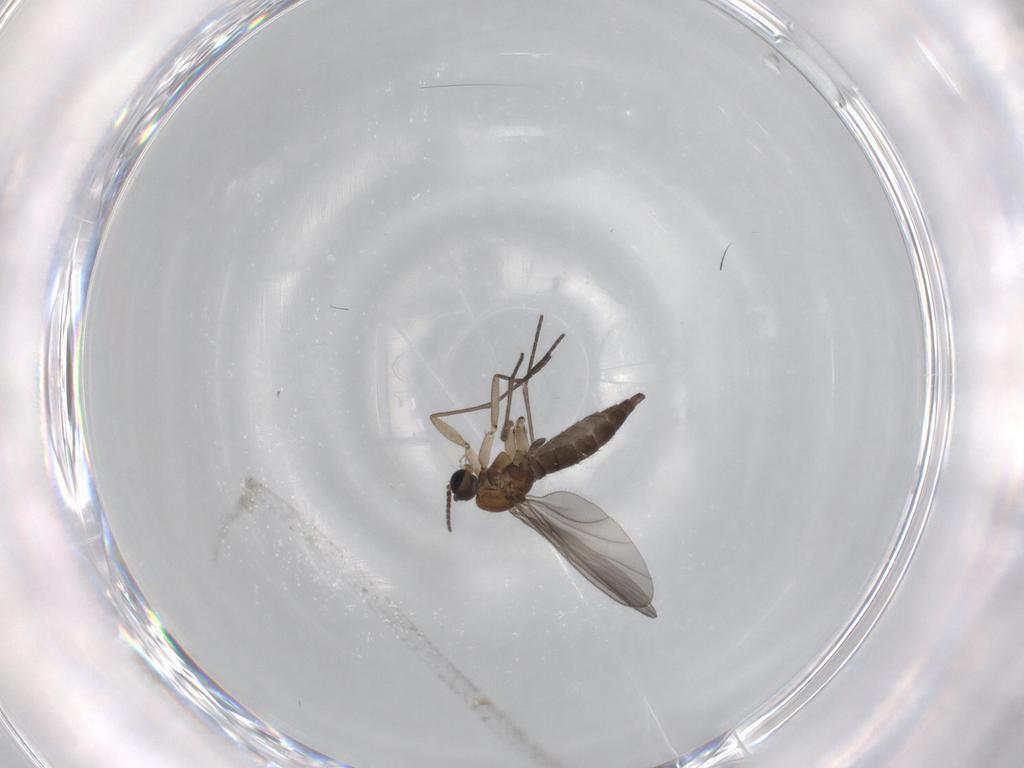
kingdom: Animalia
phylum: Arthropoda
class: Insecta
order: Diptera
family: Sciaridae
